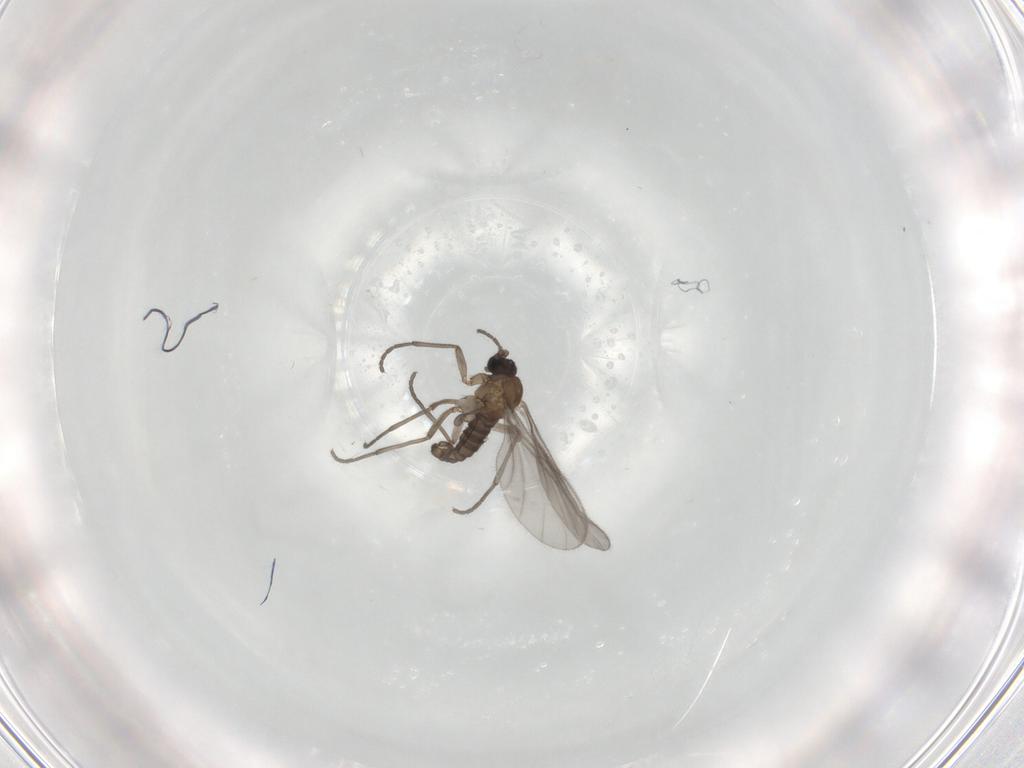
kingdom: Animalia
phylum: Arthropoda
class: Insecta
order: Diptera
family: Sciaridae
